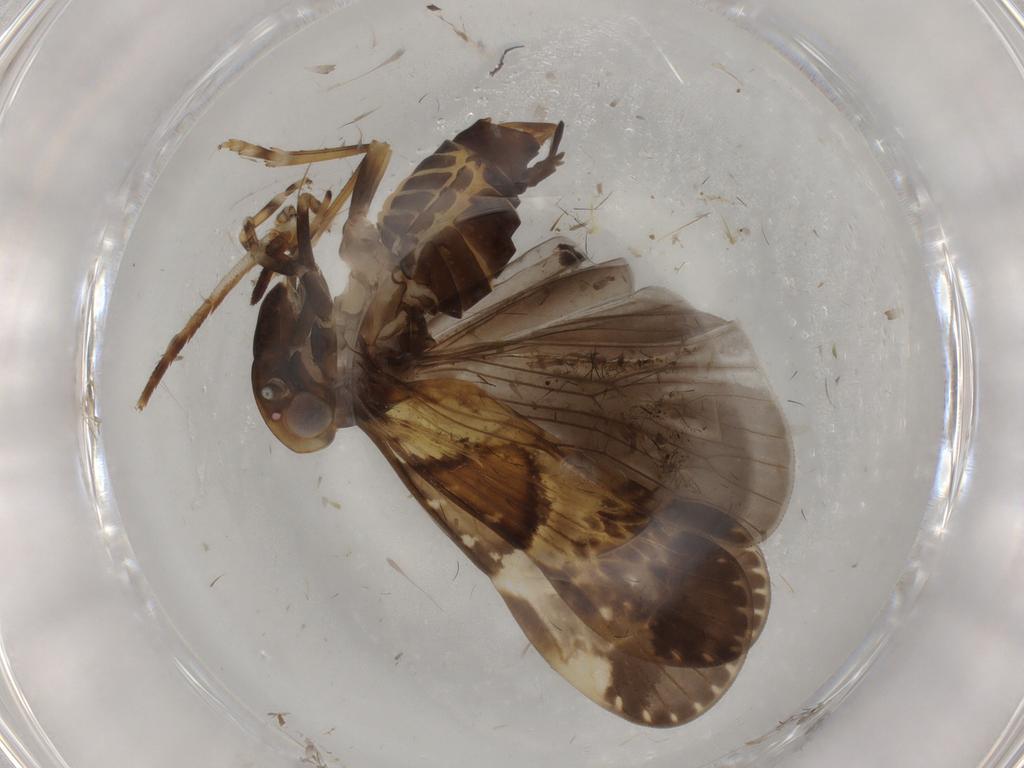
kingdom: Animalia
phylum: Arthropoda
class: Insecta
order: Hemiptera
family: Cixiidae
